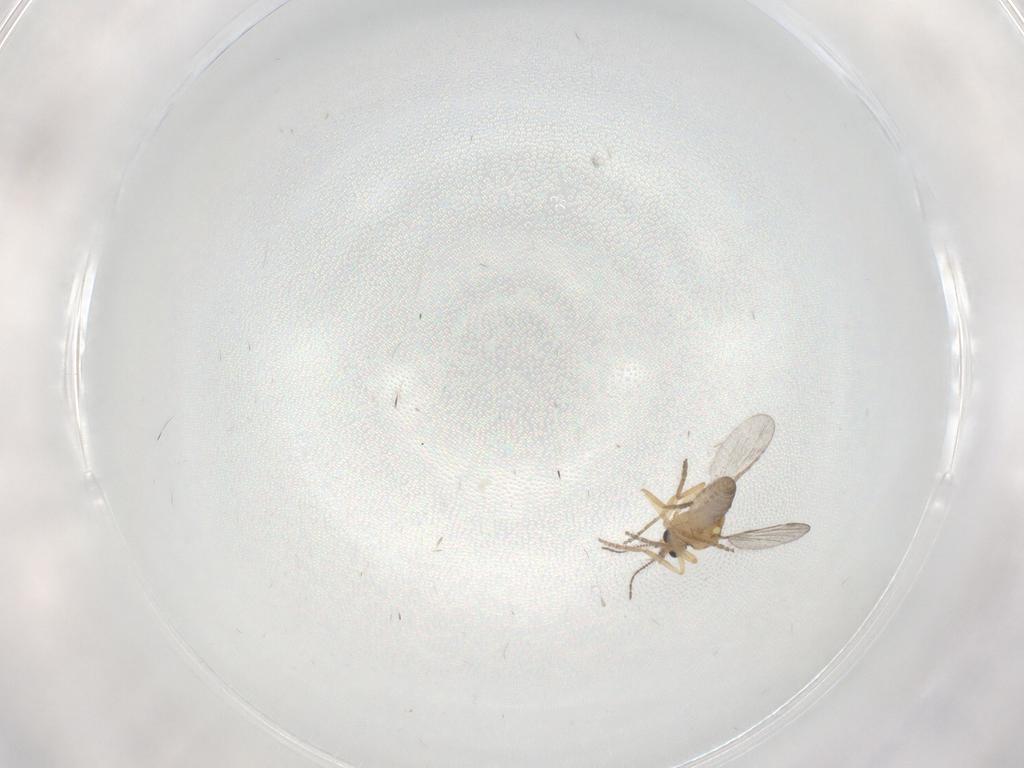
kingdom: Animalia
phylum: Arthropoda
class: Insecta
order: Diptera
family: Ceratopogonidae
